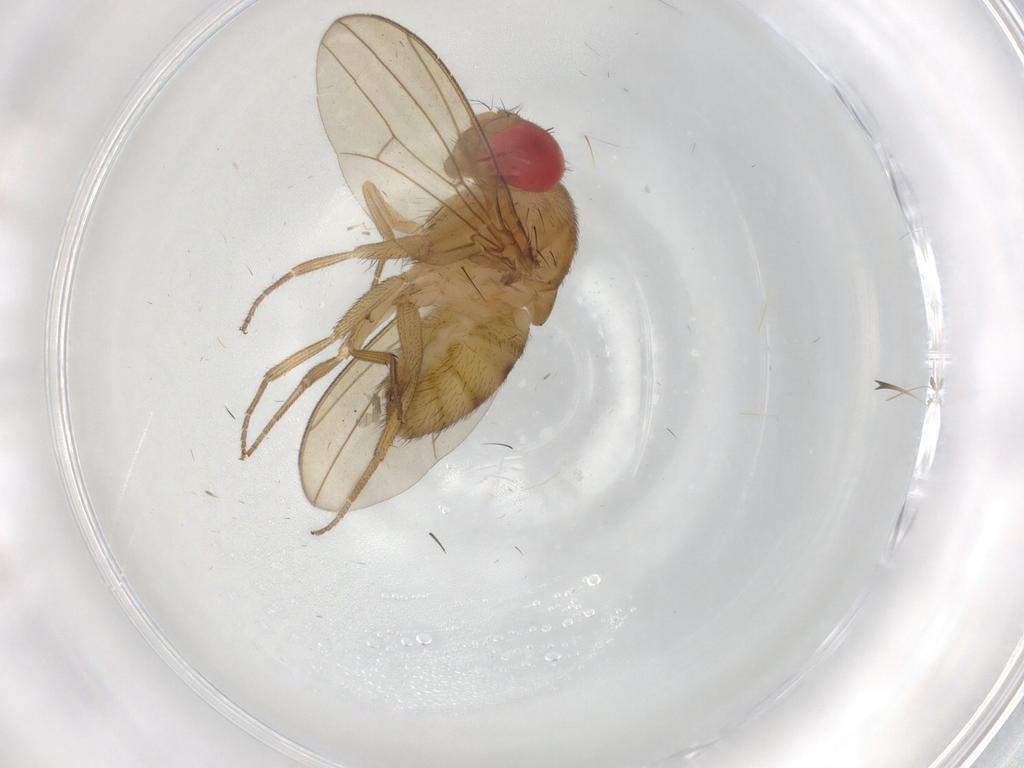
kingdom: Animalia
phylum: Arthropoda
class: Insecta
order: Diptera
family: Drosophilidae
